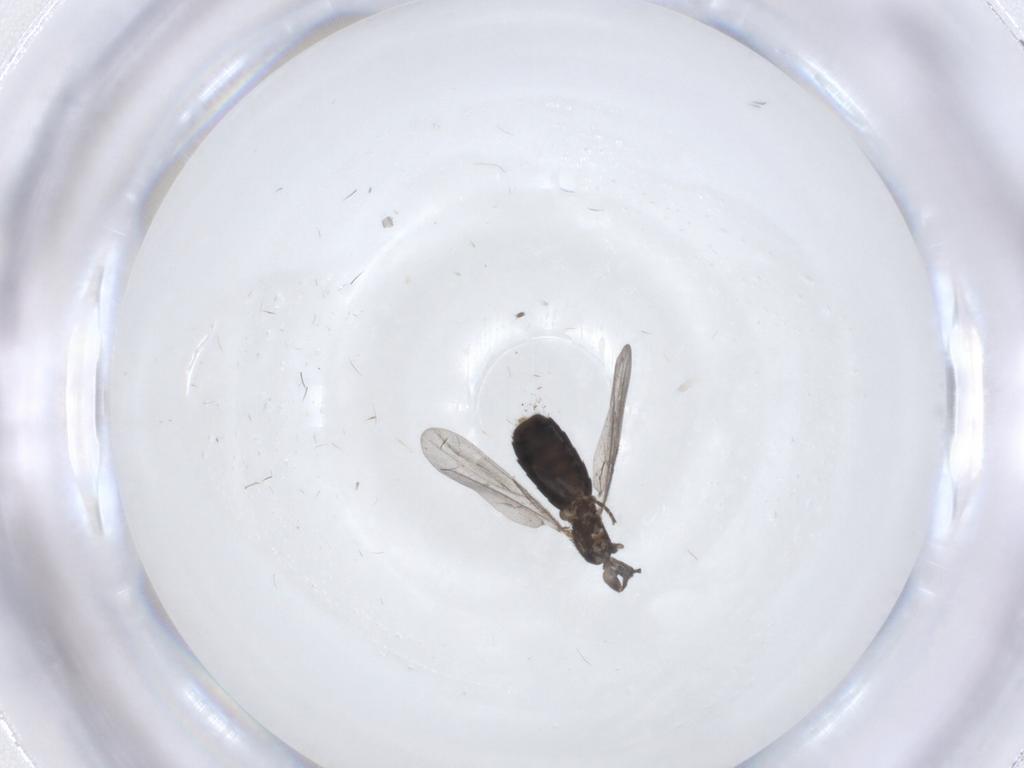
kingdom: Animalia
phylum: Arthropoda
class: Insecta
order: Diptera
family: Scatopsidae
